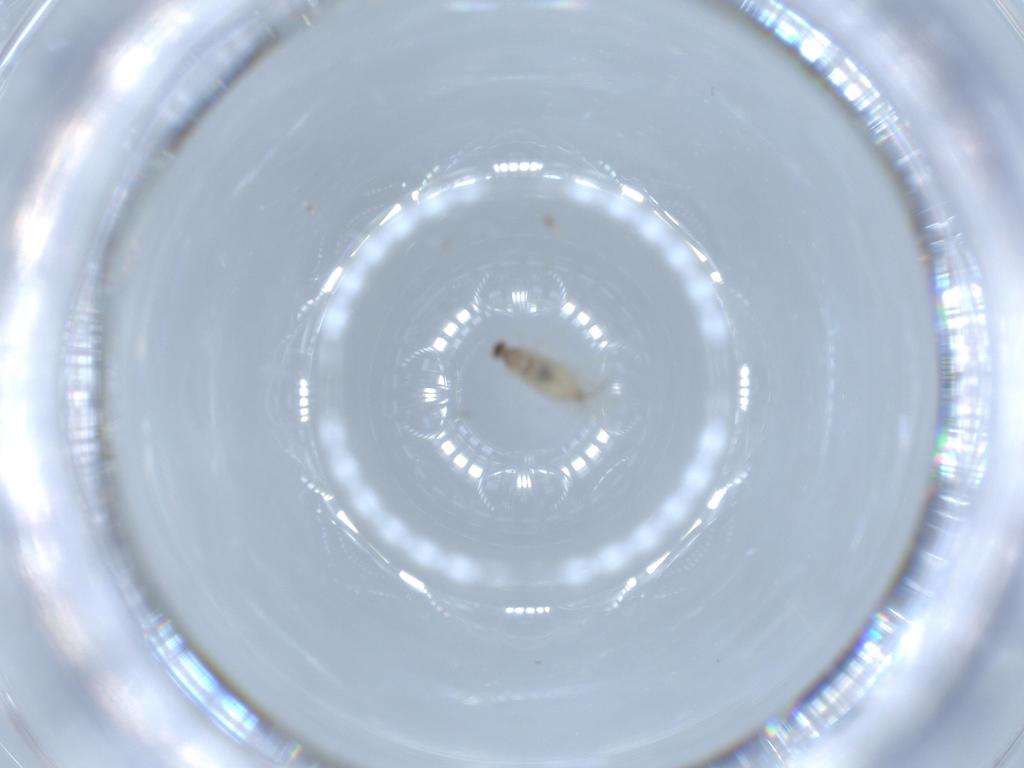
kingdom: Animalia
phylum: Arthropoda
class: Insecta
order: Diptera
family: Cecidomyiidae
